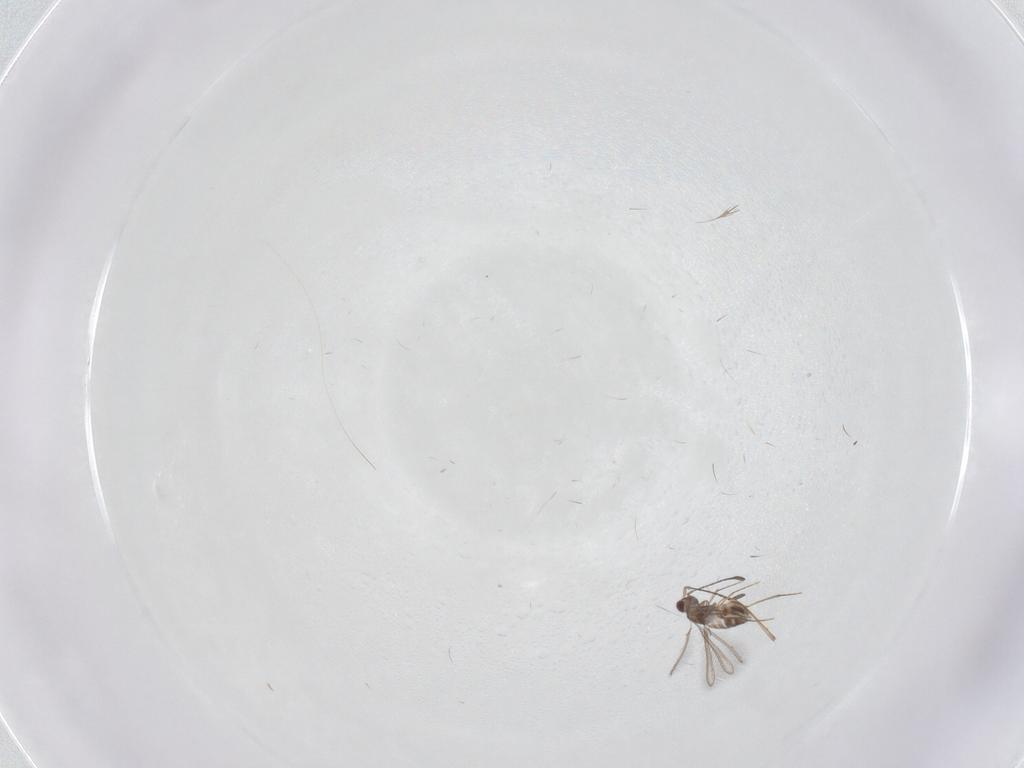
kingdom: Animalia
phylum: Arthropoda
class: Insecta
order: Hymenoptera
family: Mymaridae
